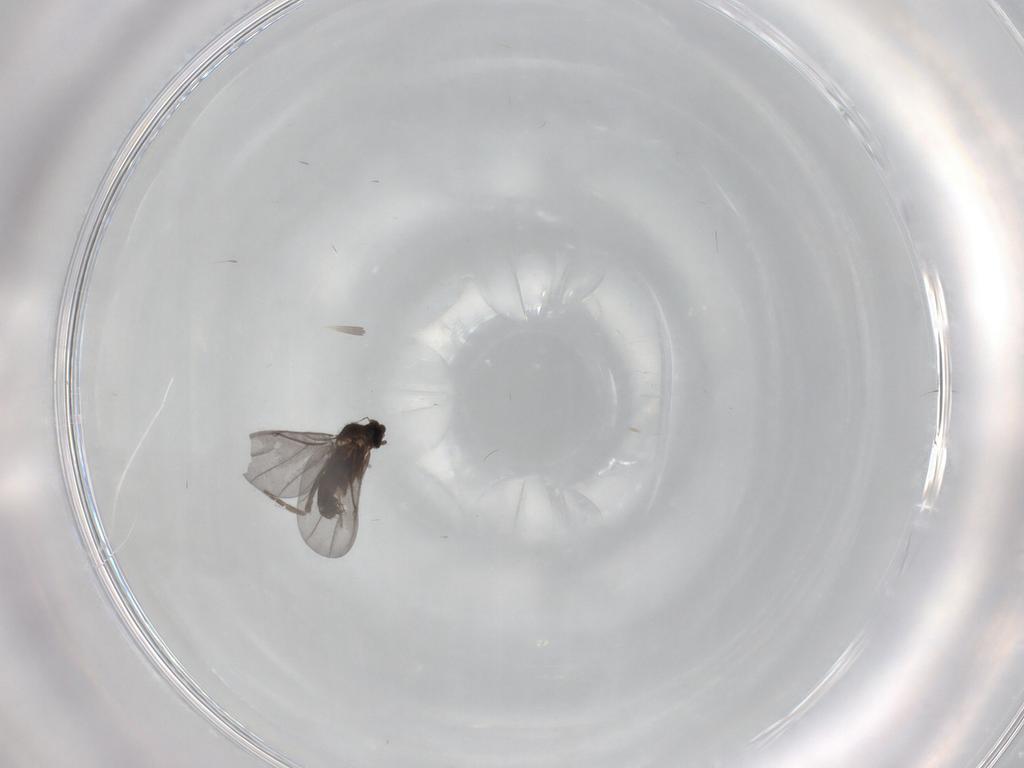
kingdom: Animalia
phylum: Arthropoda
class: Insecta
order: Diptera
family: Phoridae
